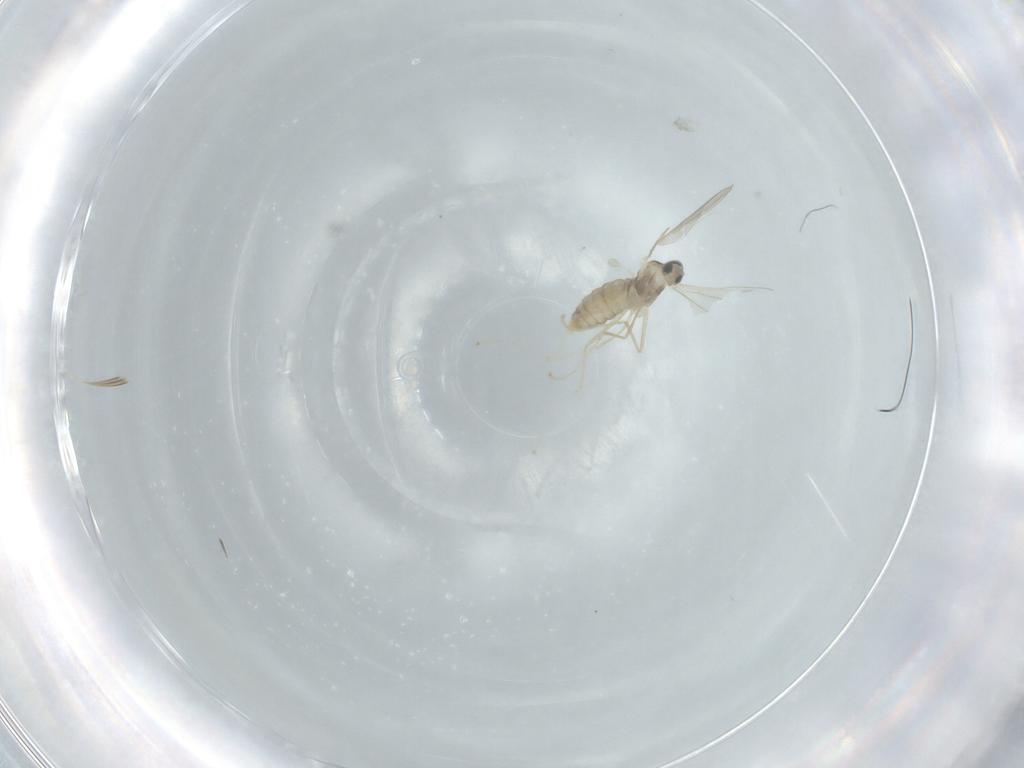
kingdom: Animalia
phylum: Arthropoda
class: Insecta
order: Diptera
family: Cecidomyiidae
